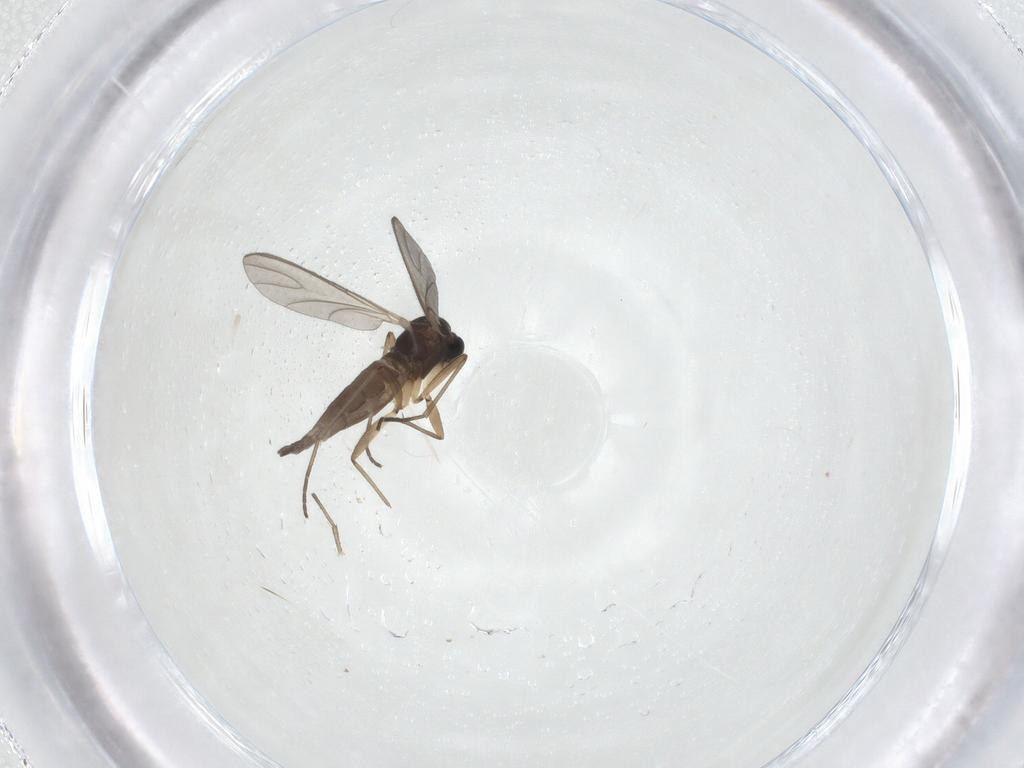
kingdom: Animalia
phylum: Arthropoda
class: Insecta
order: Diptera
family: Sciaridae
